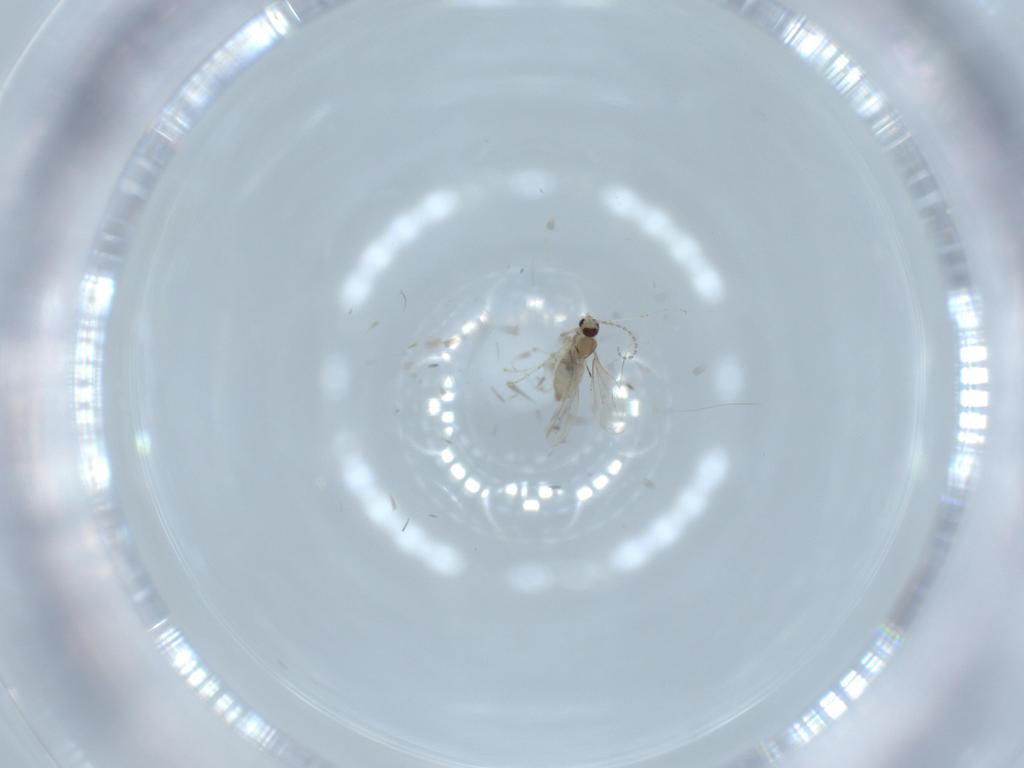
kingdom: Animalia
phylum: Arthropoda
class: Insecta
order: Diptera
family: Cecidomyiidae
